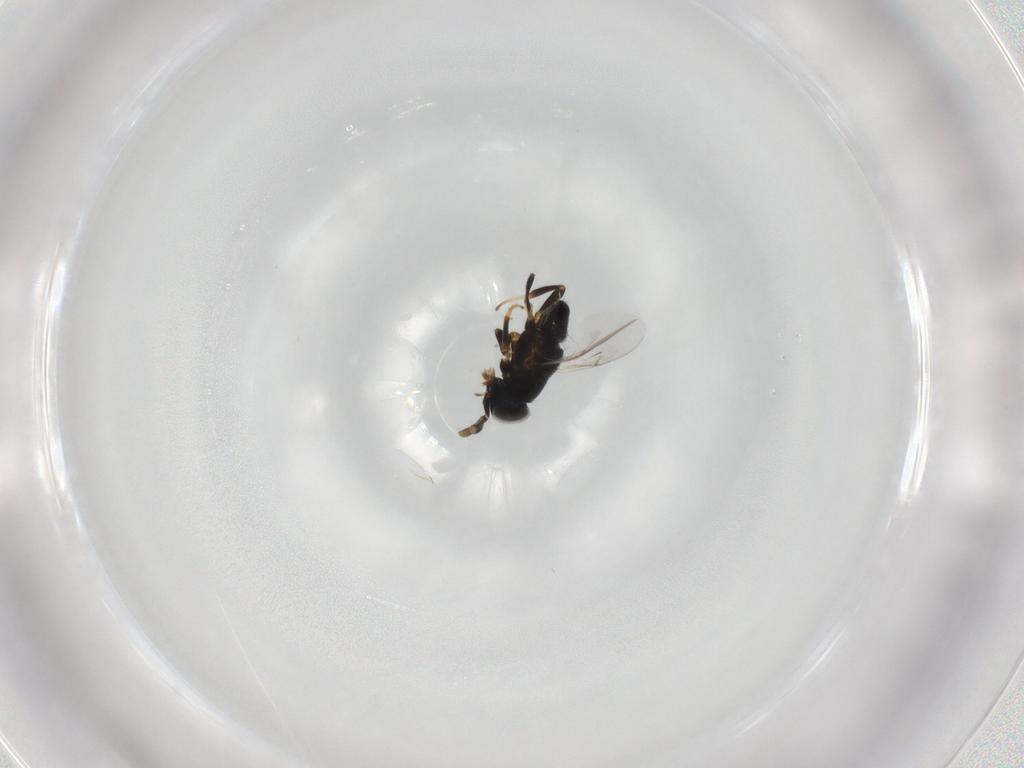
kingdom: Animalia
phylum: Arthropoda
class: Insecta
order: Hymenoptera
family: Encyrtidae
